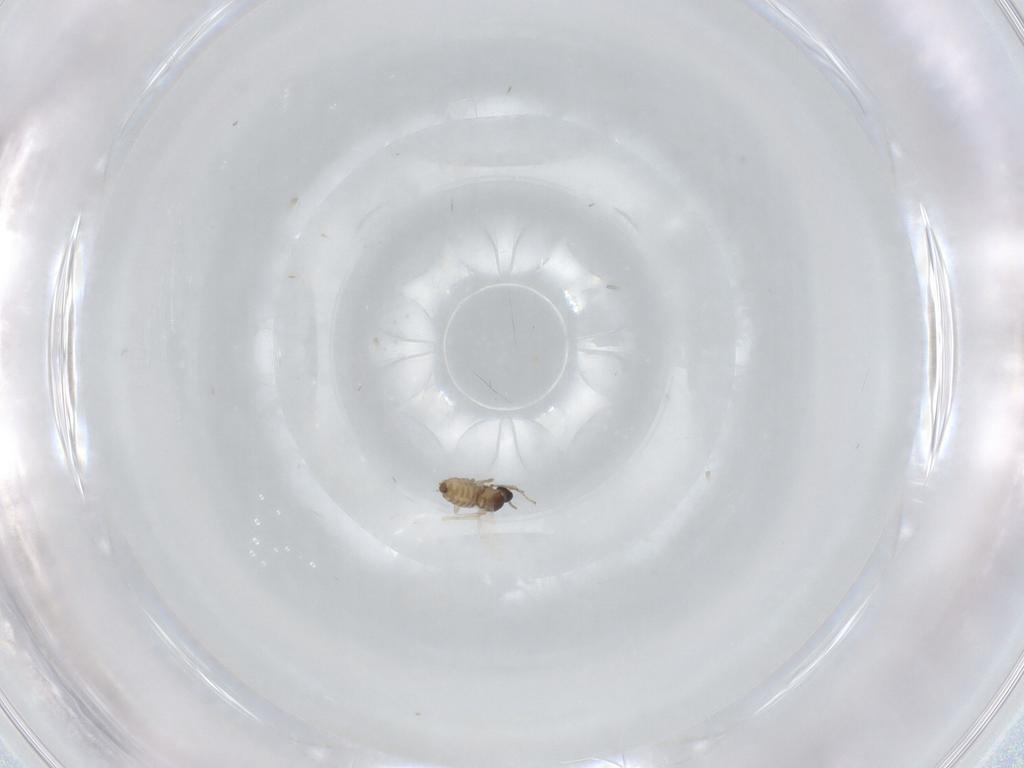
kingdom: Animalia
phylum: Arthropoda
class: Insecta
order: Diptera
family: Cecidomyiidae
